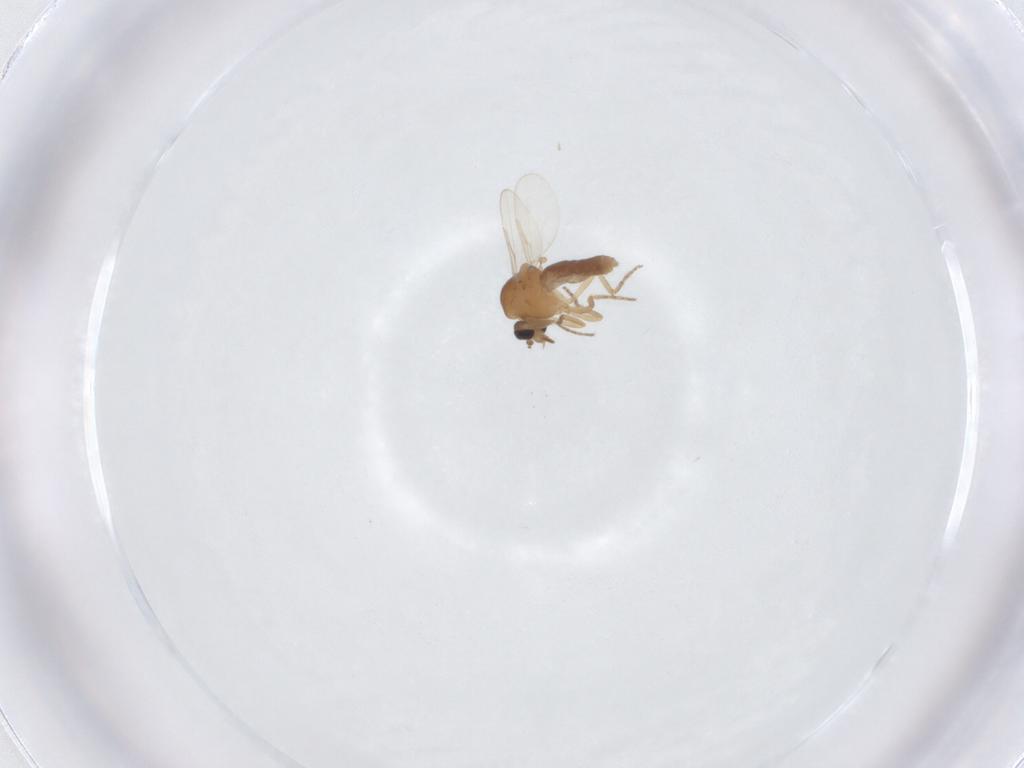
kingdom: Animalia
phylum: Arthropoda
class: Insecta
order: Diptera
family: Ceratopogonidae
